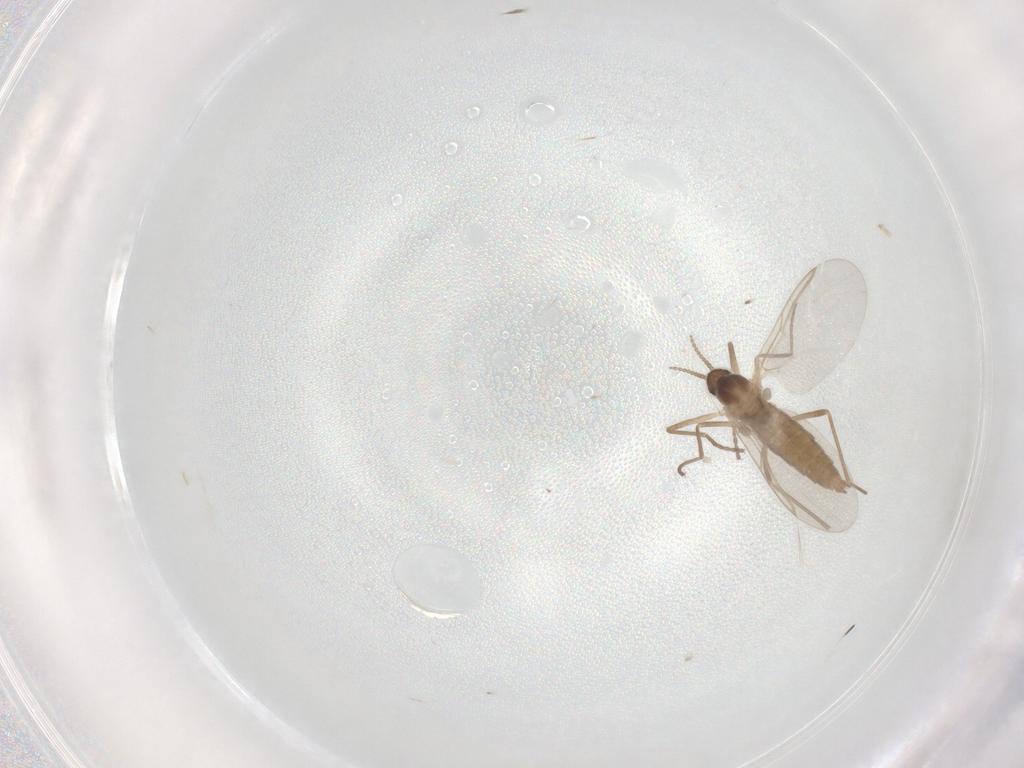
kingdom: Animalia
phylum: Arthropoda
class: Insecta
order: Diptera
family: Cecidomyiidae
